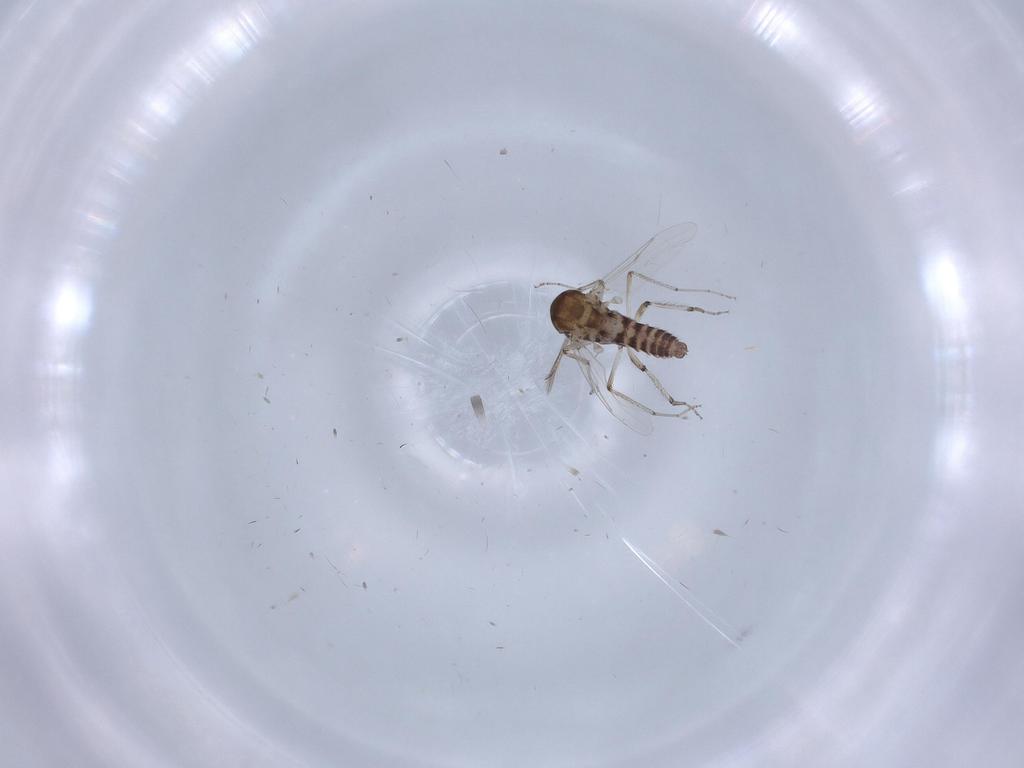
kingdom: Animalia
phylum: Arthropoda
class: Insecta
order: Diptera
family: Ceratopogonidae
